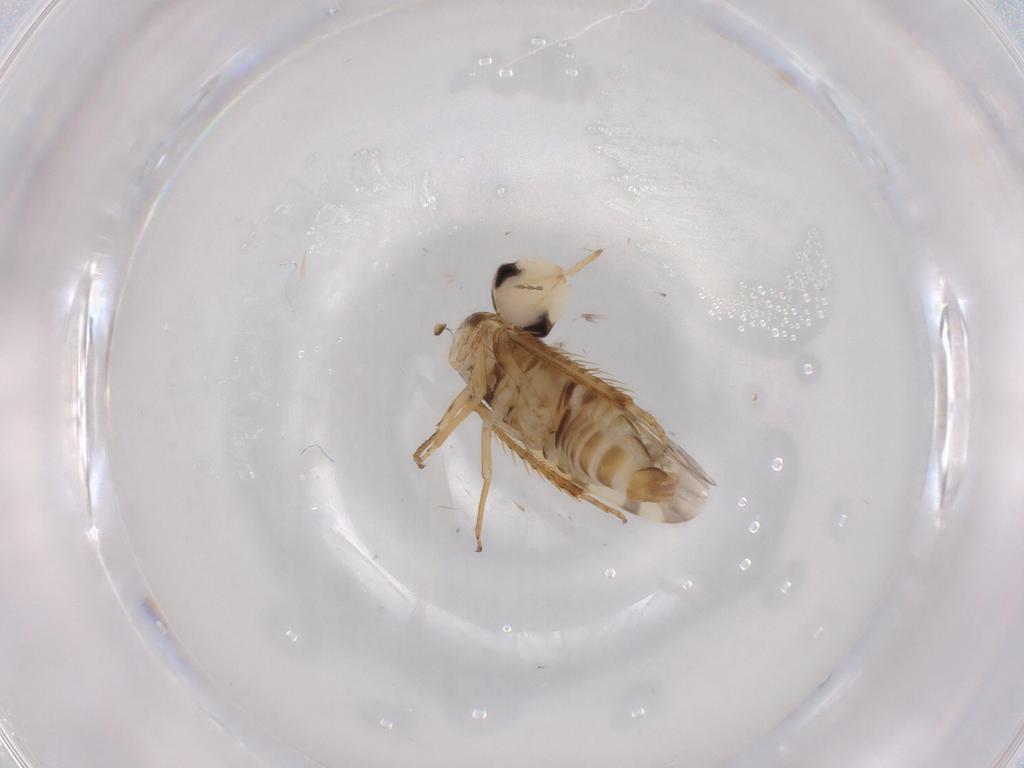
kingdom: Animalia
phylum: Arthropoda
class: Insecta
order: Hemiptera
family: Cicadellidae
